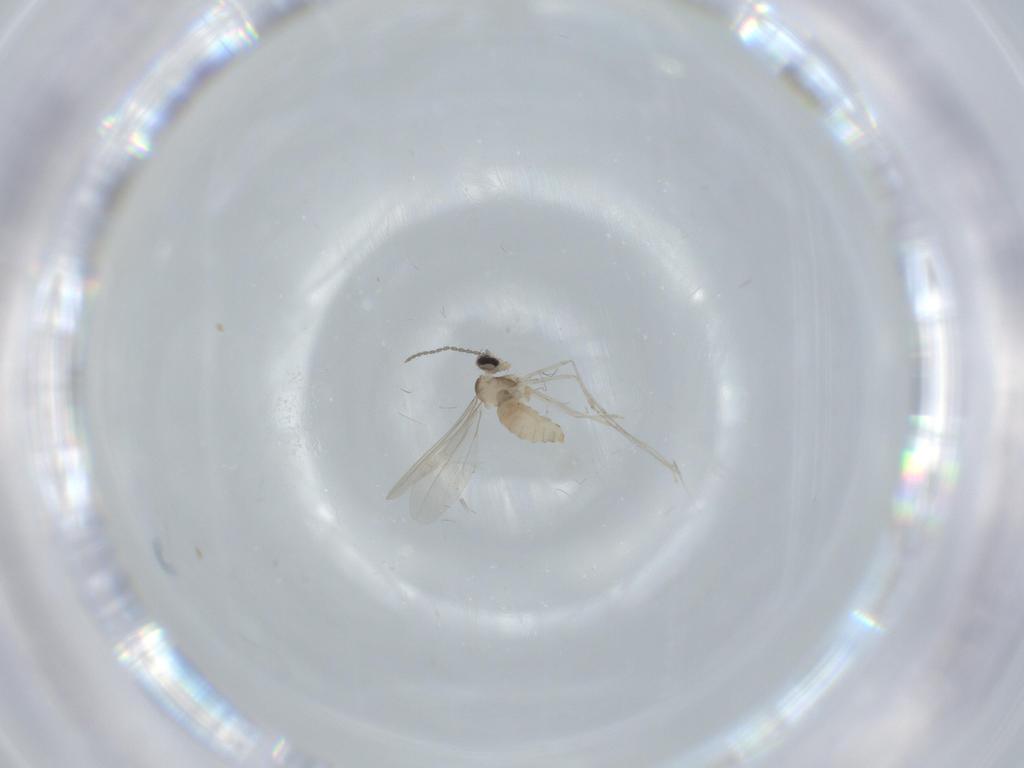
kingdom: Animalia
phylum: Arthropoda
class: Insecta
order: Diptera
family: Cecidomyiidae
